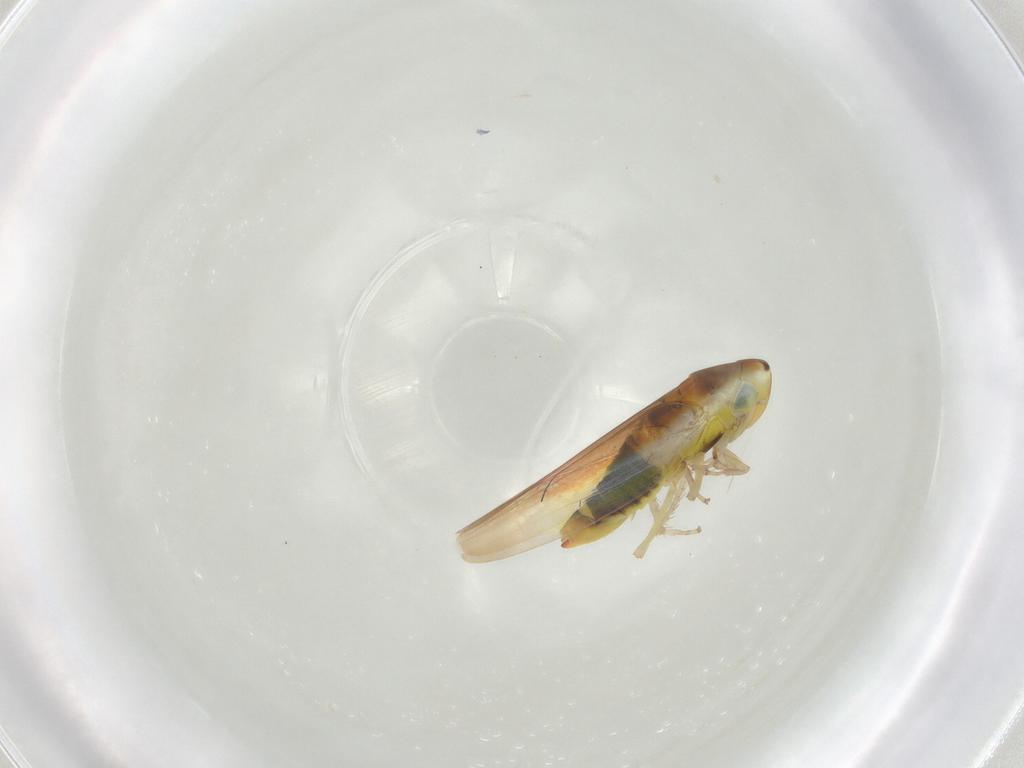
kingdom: Animalia
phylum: Arthropoda
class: Insecta
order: Hemiptera
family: Cicadellidae
